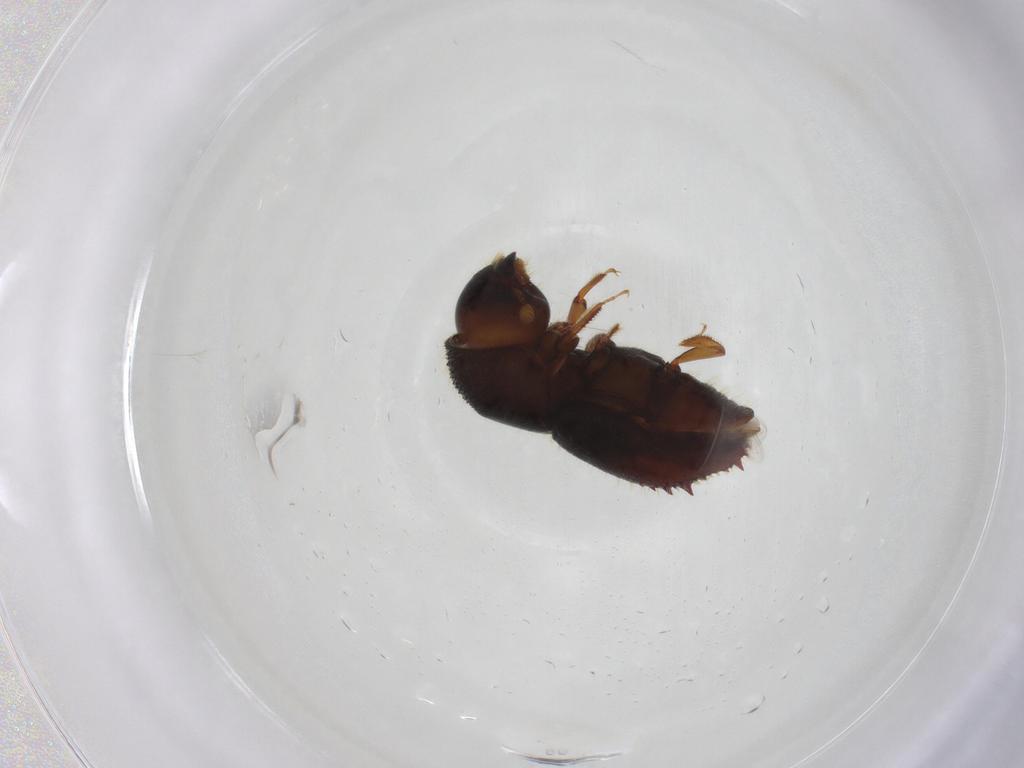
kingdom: Animalia
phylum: Arthropoda
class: Insecta
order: Coleoptera
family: Curculionidae
